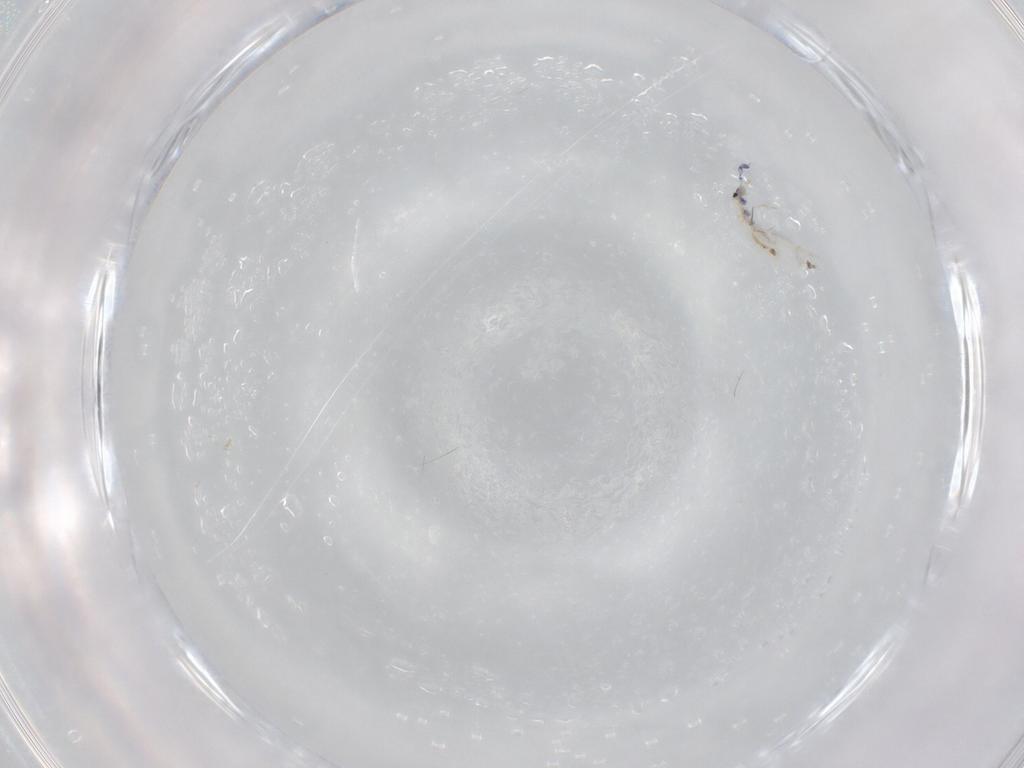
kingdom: Animalia
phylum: Arthropoda
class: Collembola
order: Entomobryomorpha
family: Entomobryidae
